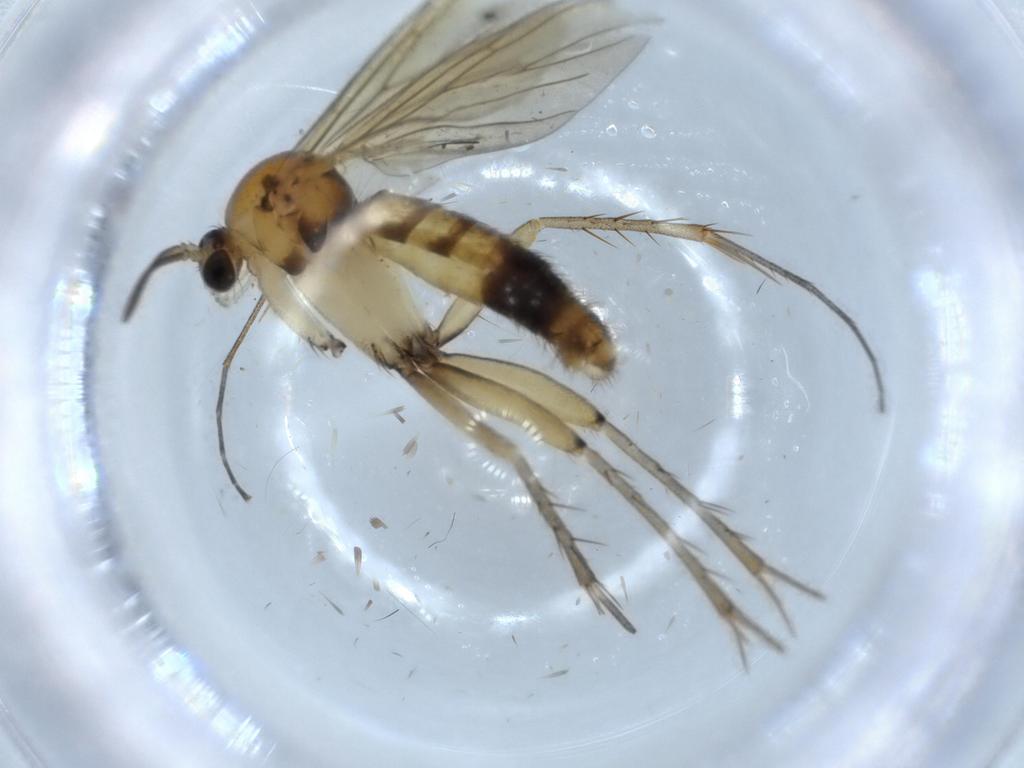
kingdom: Animalia
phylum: Arthropoda
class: Insecta
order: Diptera
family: Mycetophilidae
